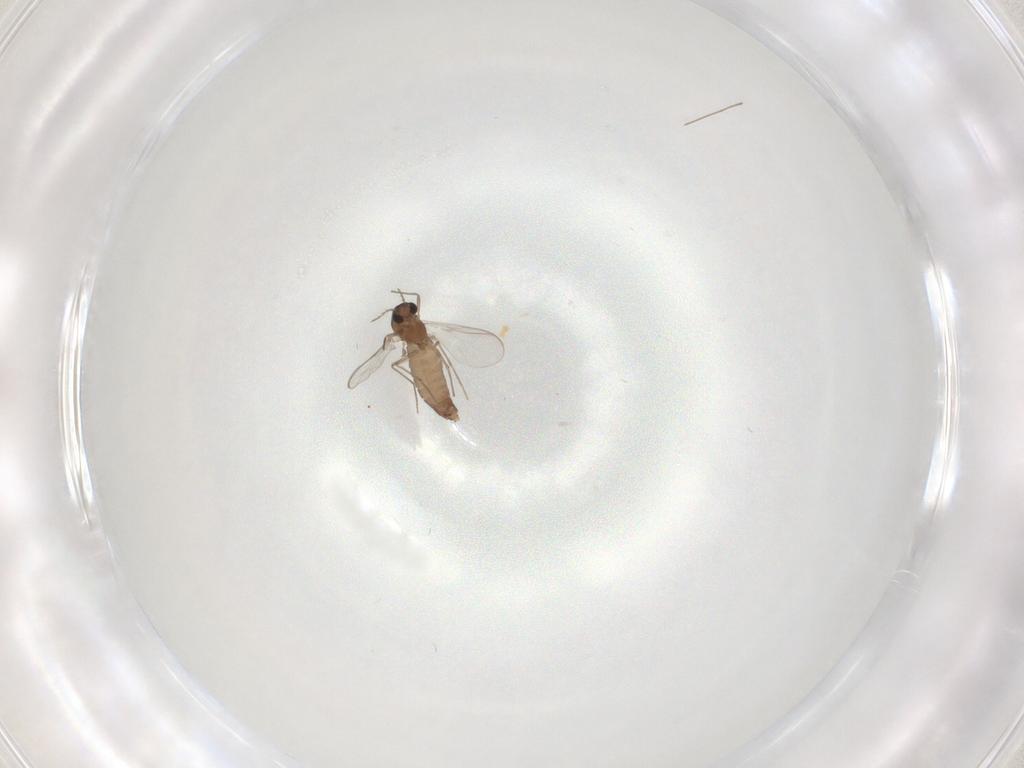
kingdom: Animalia
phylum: Arthropoda
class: Insecta
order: Diptera
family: Chironomidae
